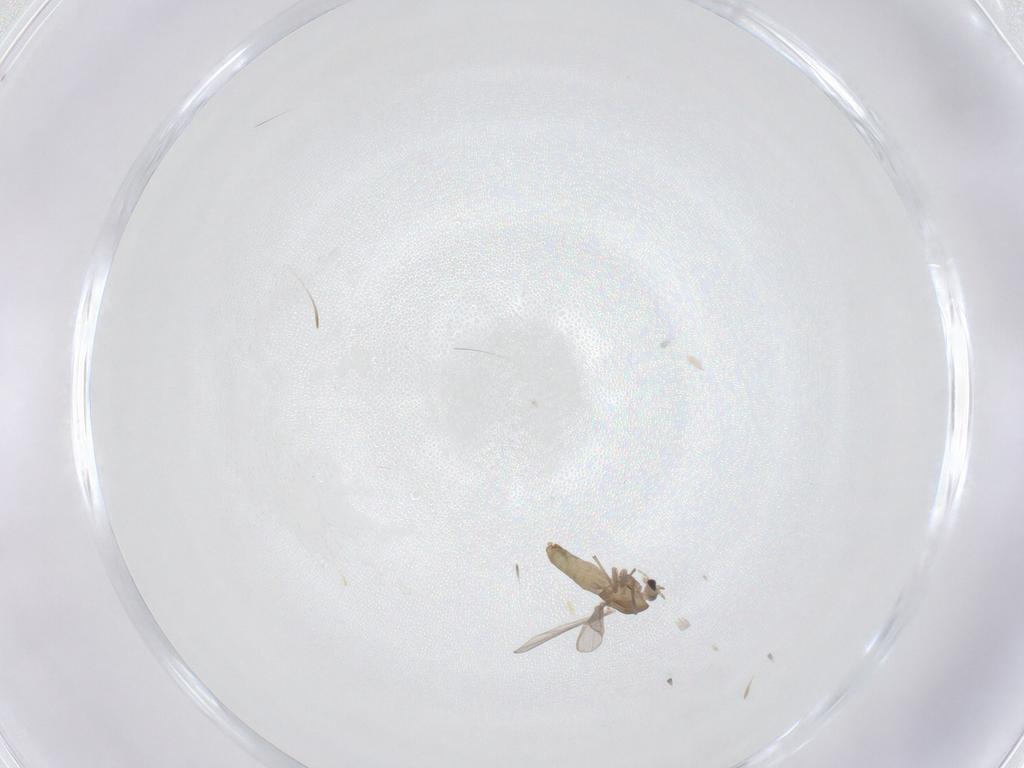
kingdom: Animalia
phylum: Arthropoda
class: Insecta
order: Diptera
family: Chironomidae
